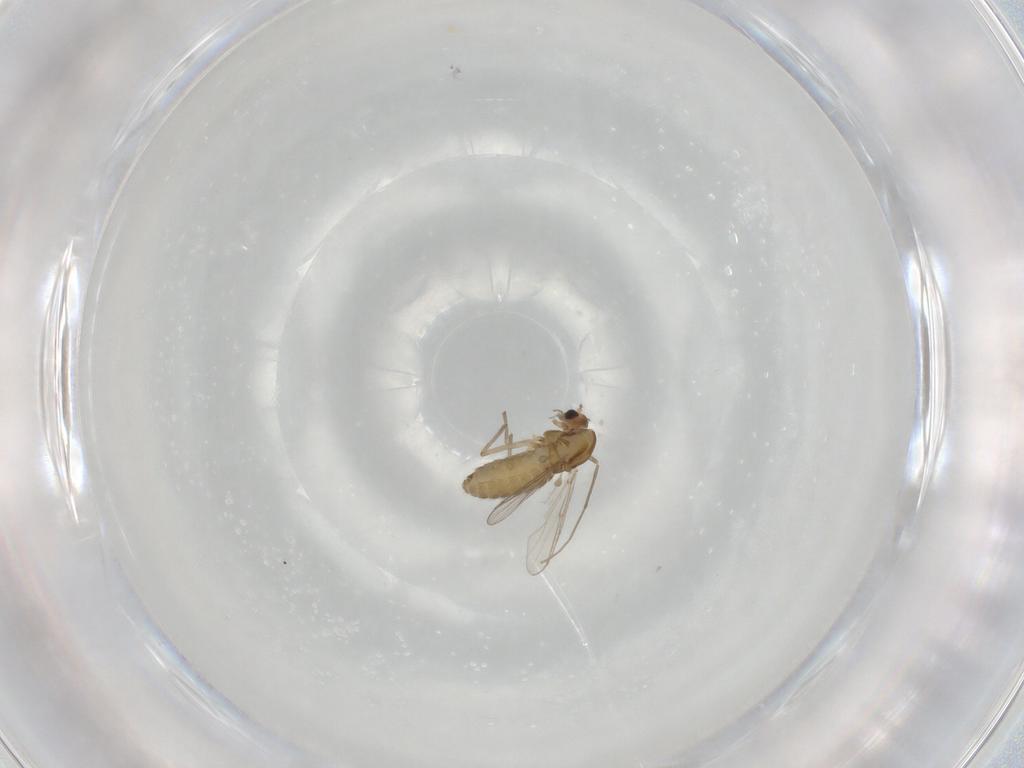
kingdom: Animalia
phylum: Arthropoda
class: Insecta
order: Diptera
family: Chironomidae
